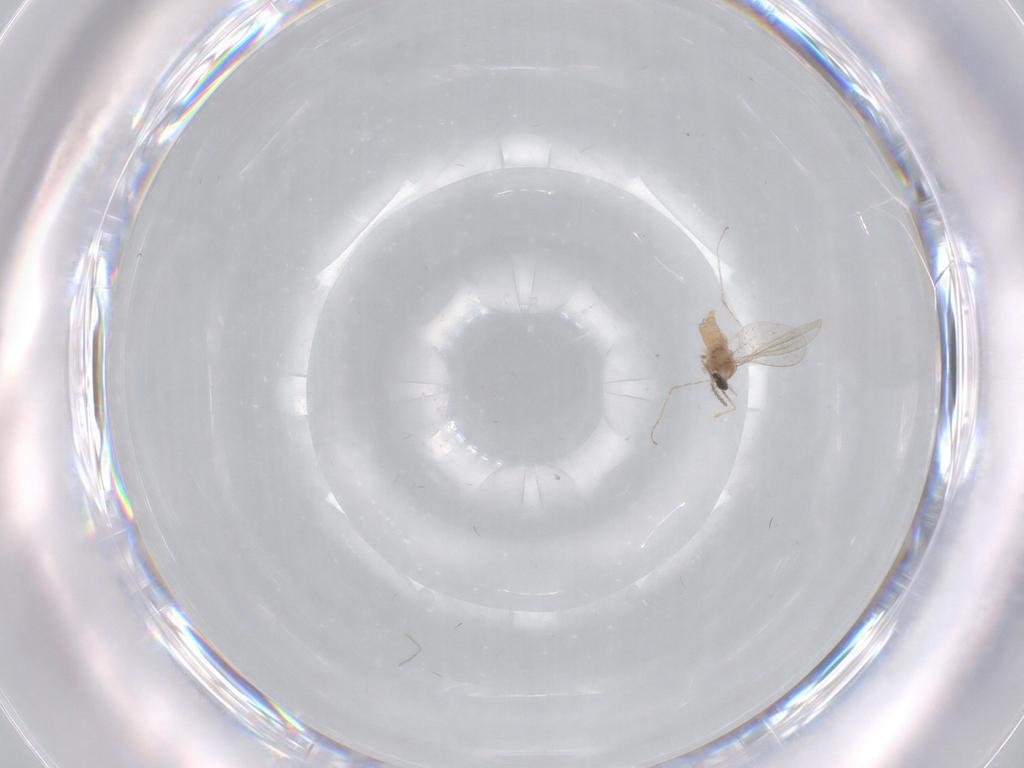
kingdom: Animalia
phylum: Arthropoda
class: Insecta
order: Diptera
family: Cecidomyiidae
